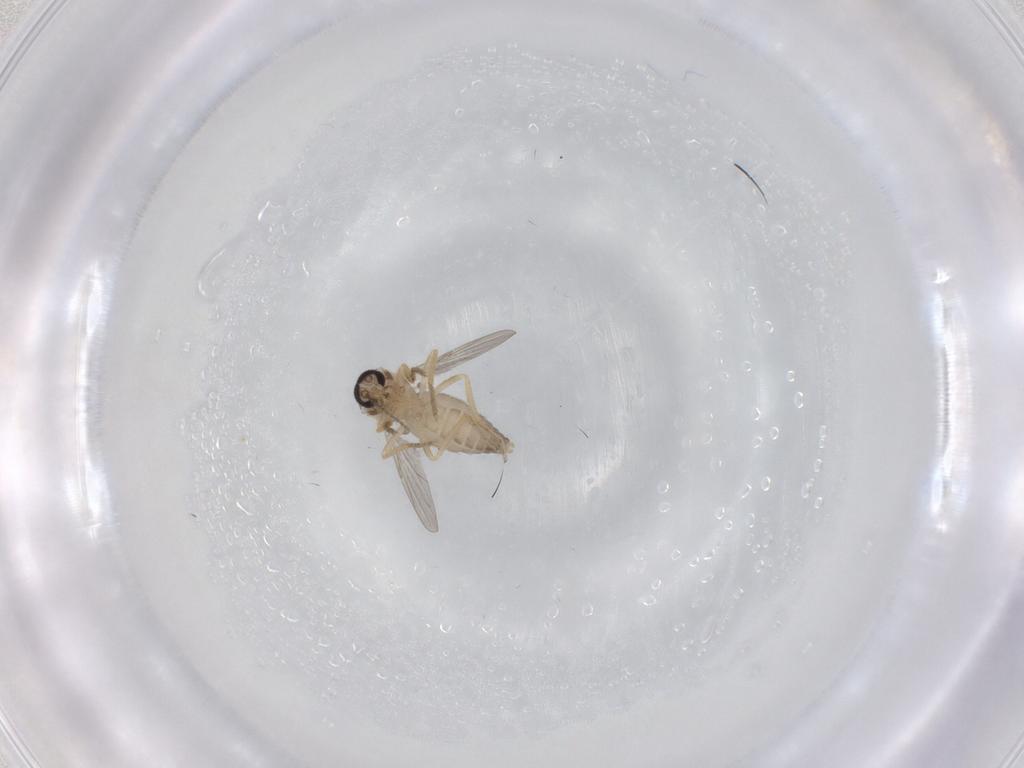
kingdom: Animalia
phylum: Arthropoda
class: Insecta
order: Diptera
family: Ceratopogonidae
